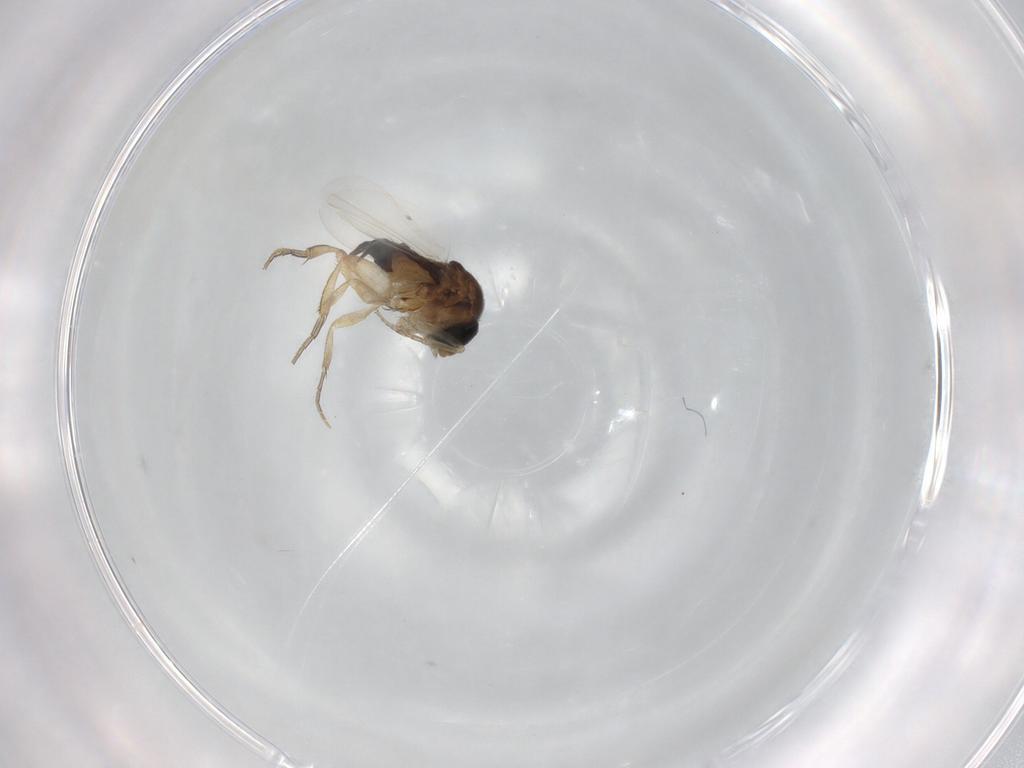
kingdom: Animalia
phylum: Arthropoda
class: Insecta
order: Diptera
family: Phoridae
